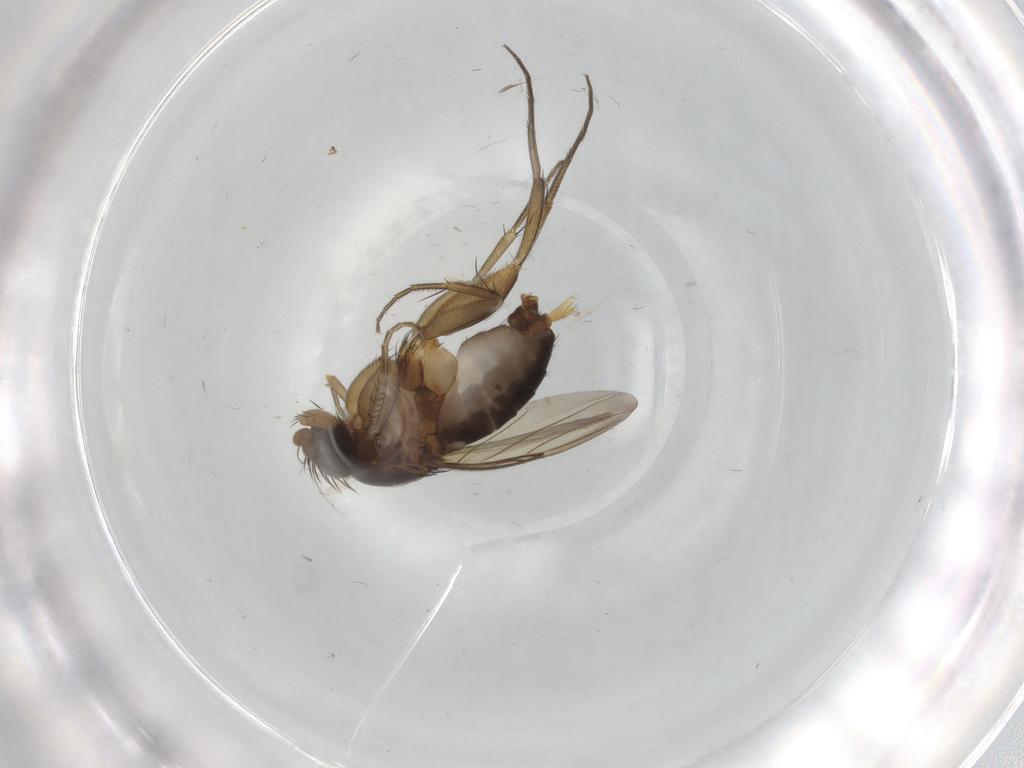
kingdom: Animalia
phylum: Arthropoda
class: Insecta
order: Diptera
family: Phoridae
